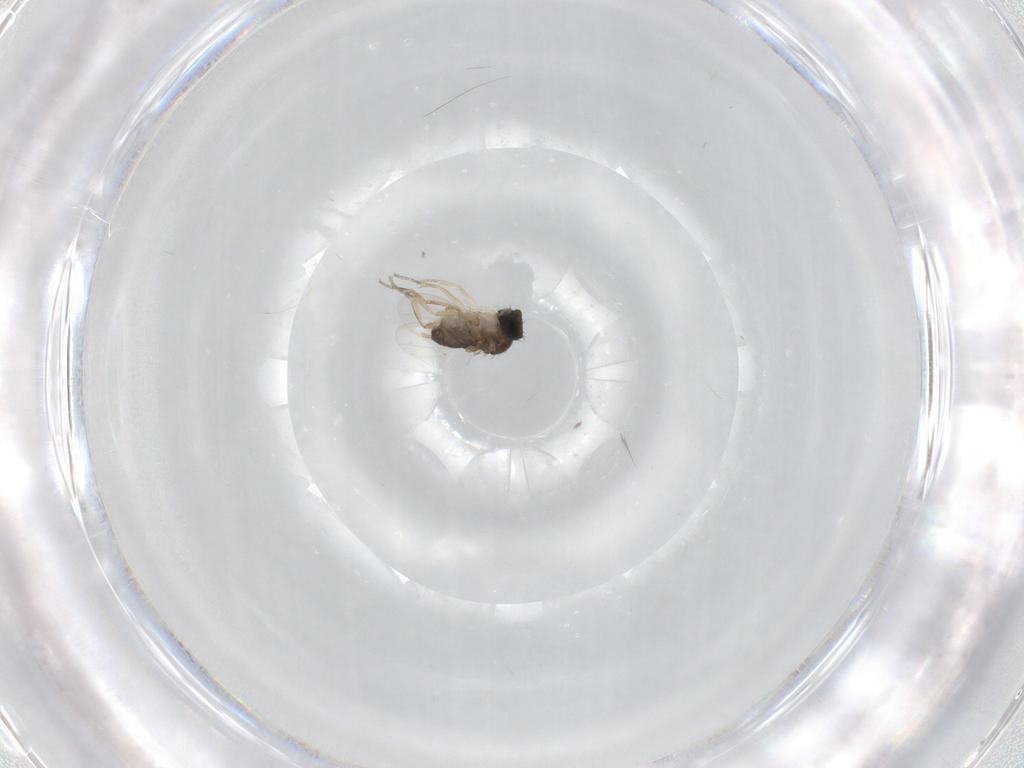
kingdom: Animalia
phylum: Arthropoda
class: Insecta
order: Diptera
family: Phoridae
